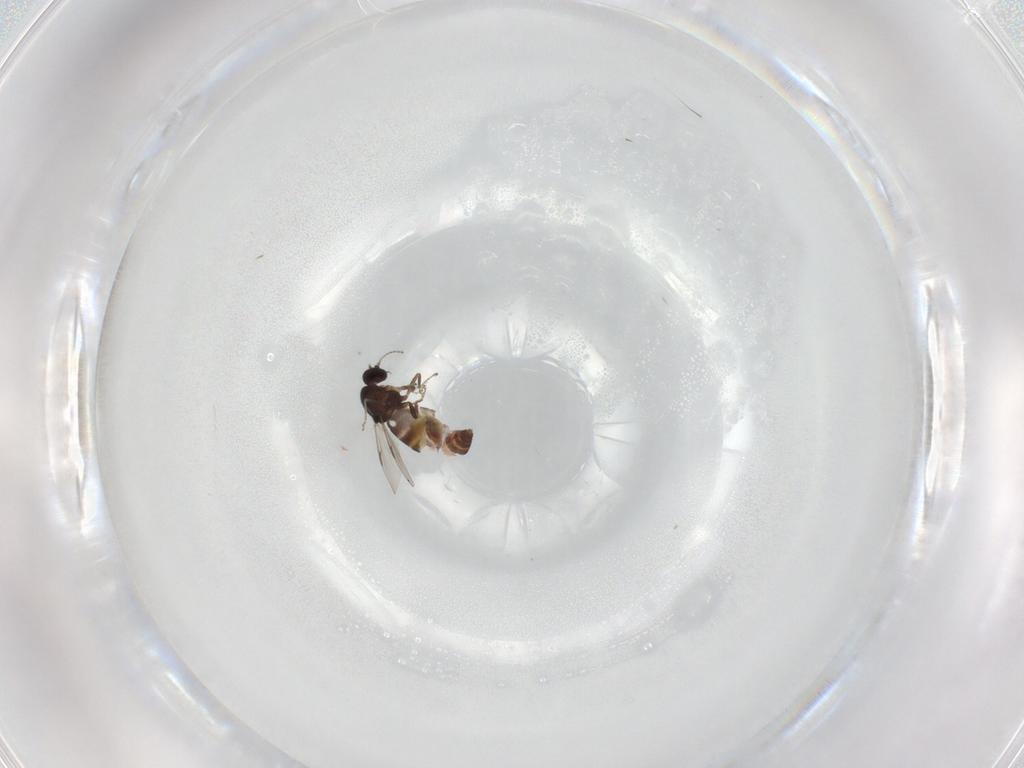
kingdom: Animalia
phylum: Arthropoda
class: Insecta
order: Diptera
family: Ceratopogonidae
